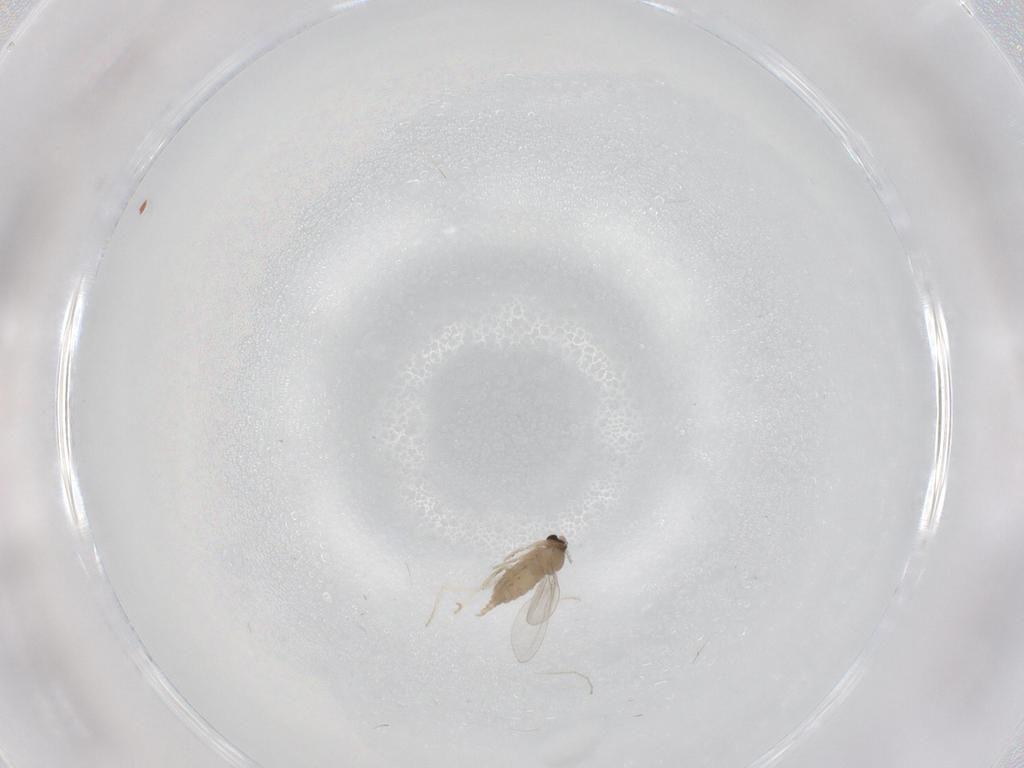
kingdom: Animalia
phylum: Arthropoda
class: Insecta
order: Diptera
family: Cecidomyiidae
